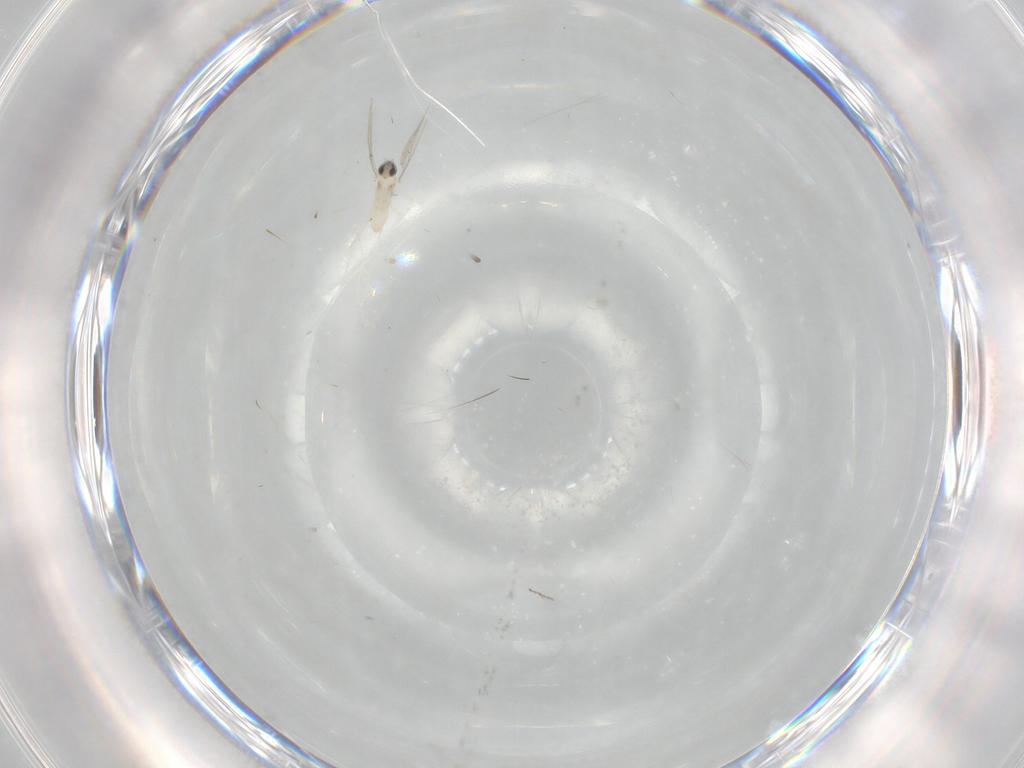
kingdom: Animalia
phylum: Arthropoda
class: Insecta
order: Diptera
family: Cecidomyiidae
